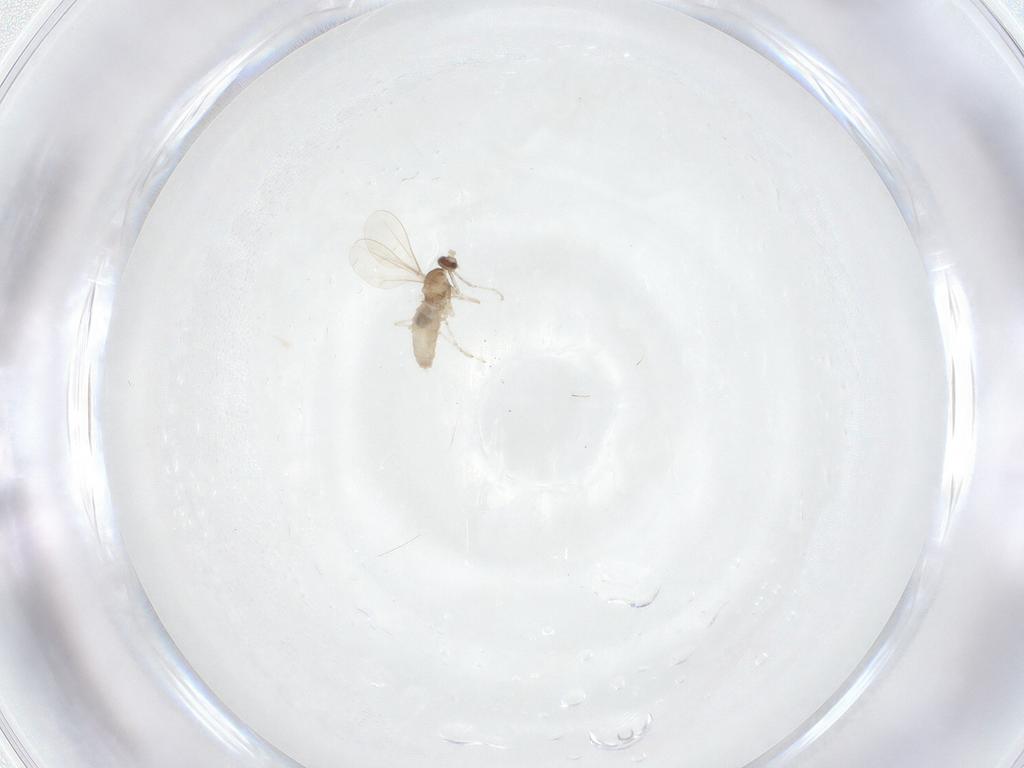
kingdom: Animalia
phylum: Arthropoda
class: Insecta
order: Diptera
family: Cecidomyiidae
